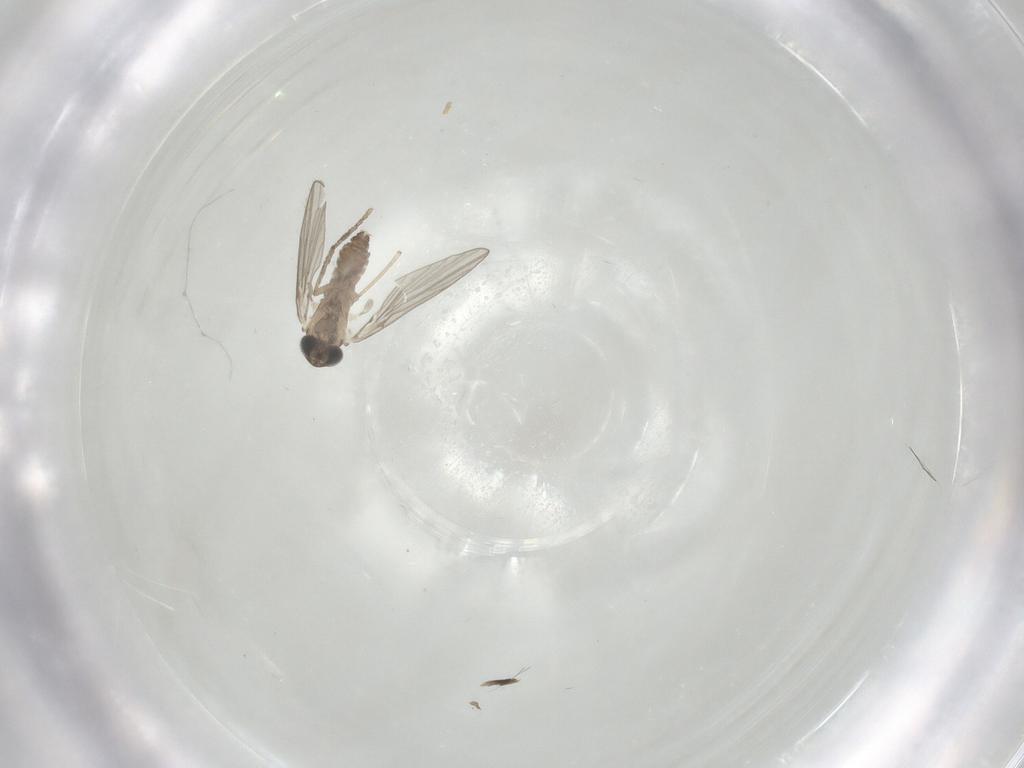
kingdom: Animalia
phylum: Arthropoda
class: Insecta
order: Diptera
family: Psychodidae
